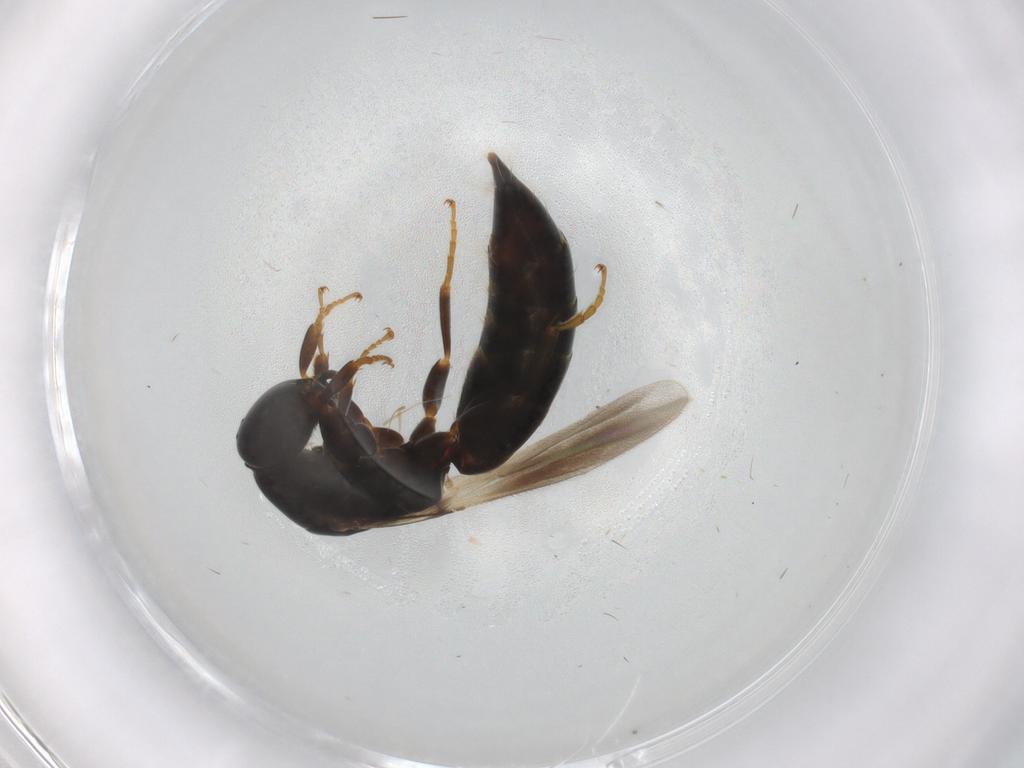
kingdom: Animalia
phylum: Arthropoda
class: Insecta
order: Hymenoptera
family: Bethylidae
